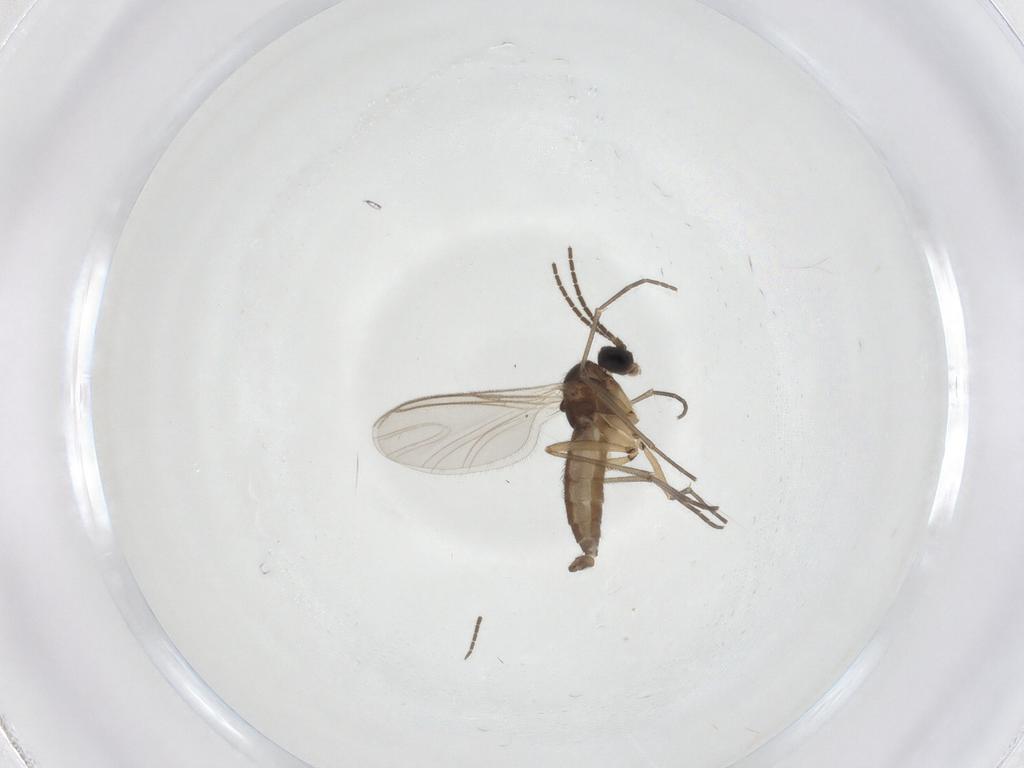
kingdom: Animalia
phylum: Arthropoda
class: Insecta
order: Diptera
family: Sciaridae
